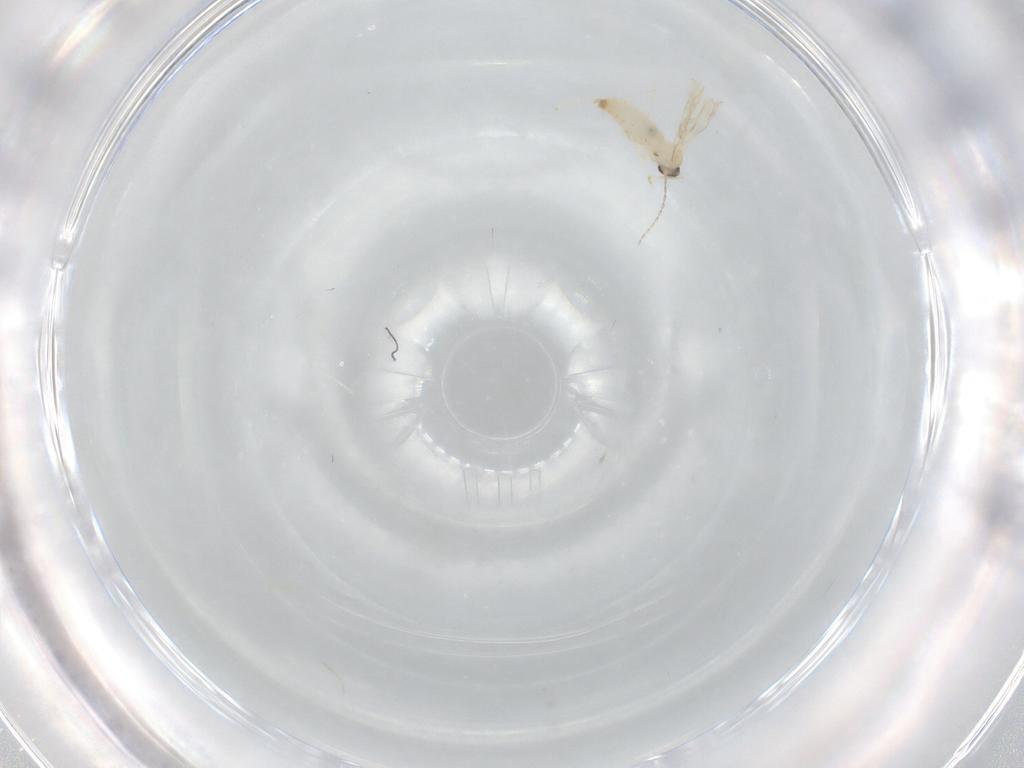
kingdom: Animalia
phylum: Arthropoda
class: Insecta
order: Diptera
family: Cecidomyiidae
